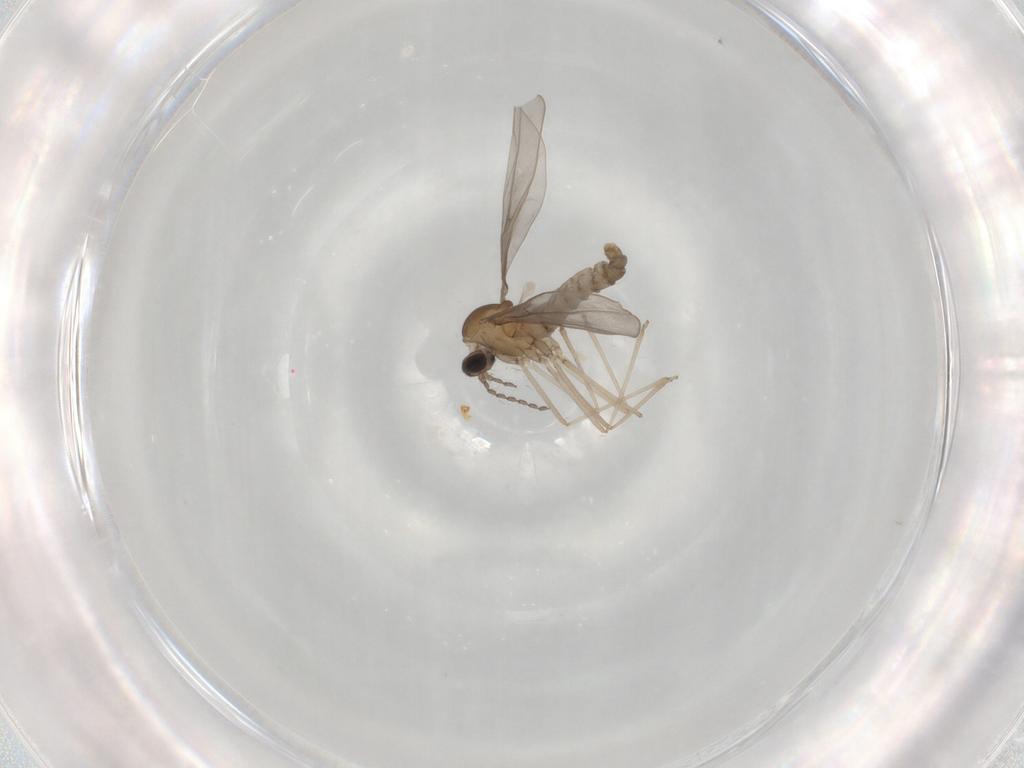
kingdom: Animalia
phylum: Arthropoda
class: Insecta
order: Diptera
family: Cecidomyiidae
